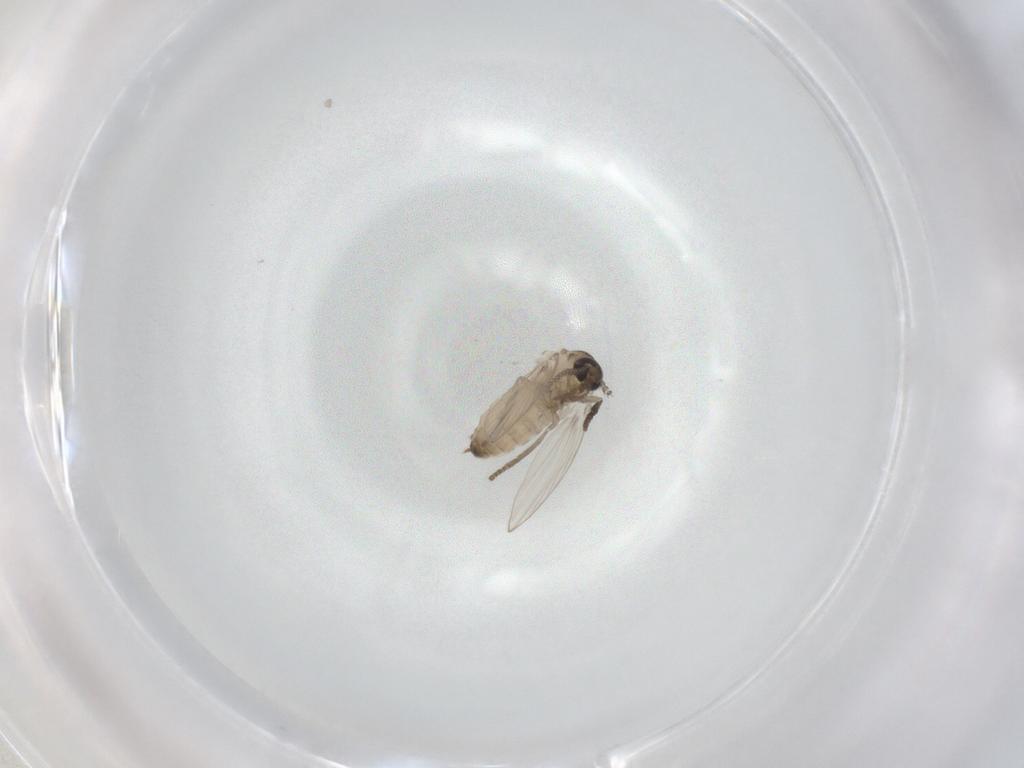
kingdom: Animalia
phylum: Arthropoda
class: Insecta
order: Diptera
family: Psychodidae
